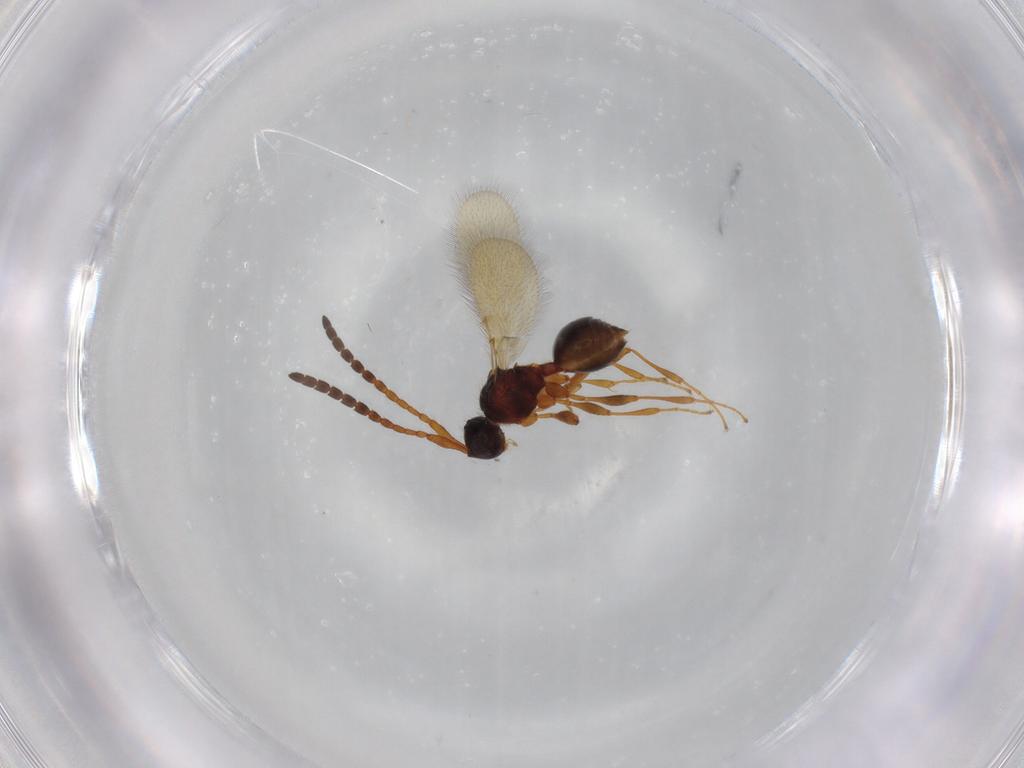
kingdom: Animalia
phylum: Arthropoda
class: Insecta
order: Hymenoptera
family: Diapriidae
